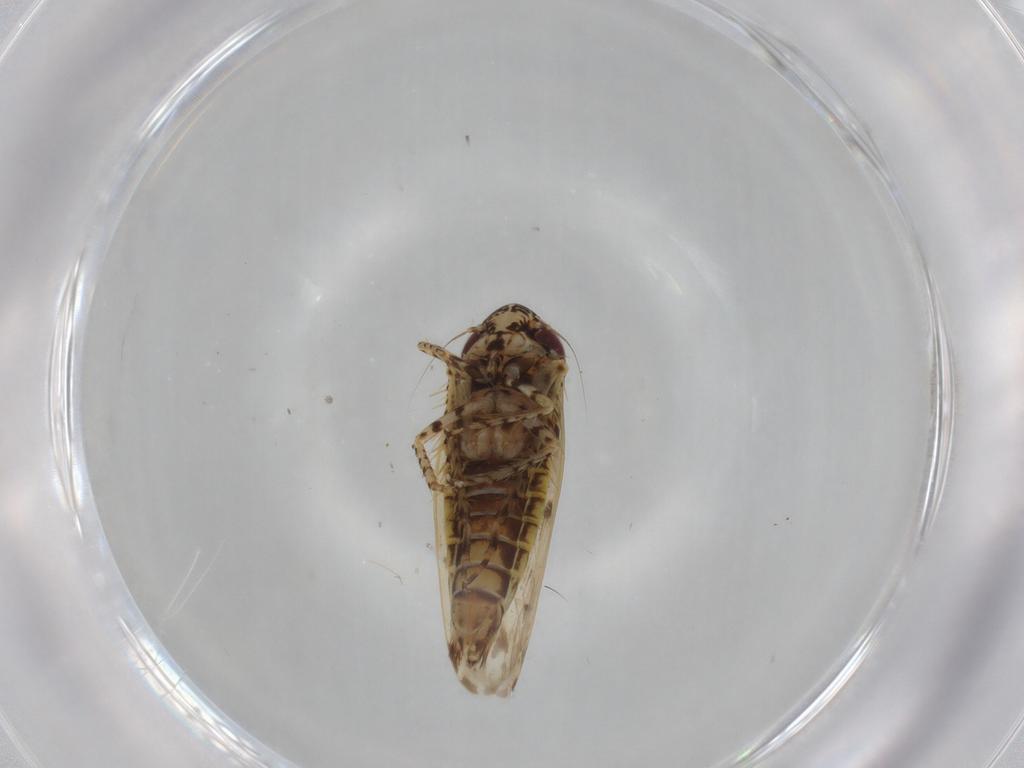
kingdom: Animalia
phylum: Arthropoda
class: Insecta
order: Hemiptera
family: Cicadellidae
